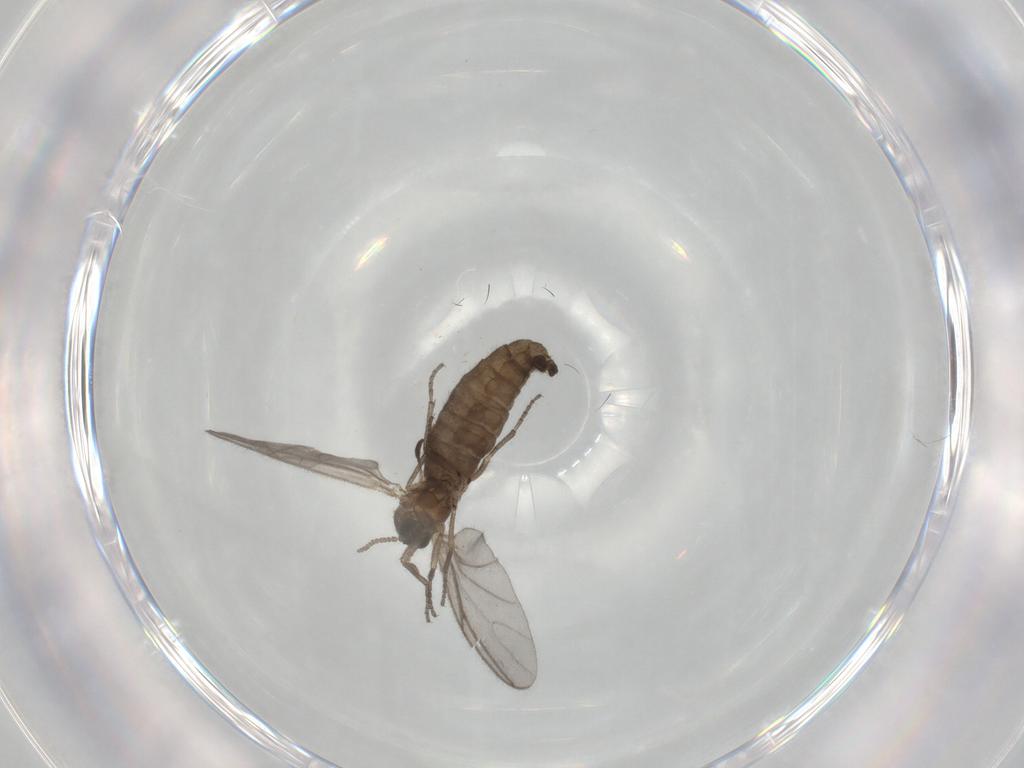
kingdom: Animalia
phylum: Arthropoda
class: Insecta
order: Diptera
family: Sciaridae
